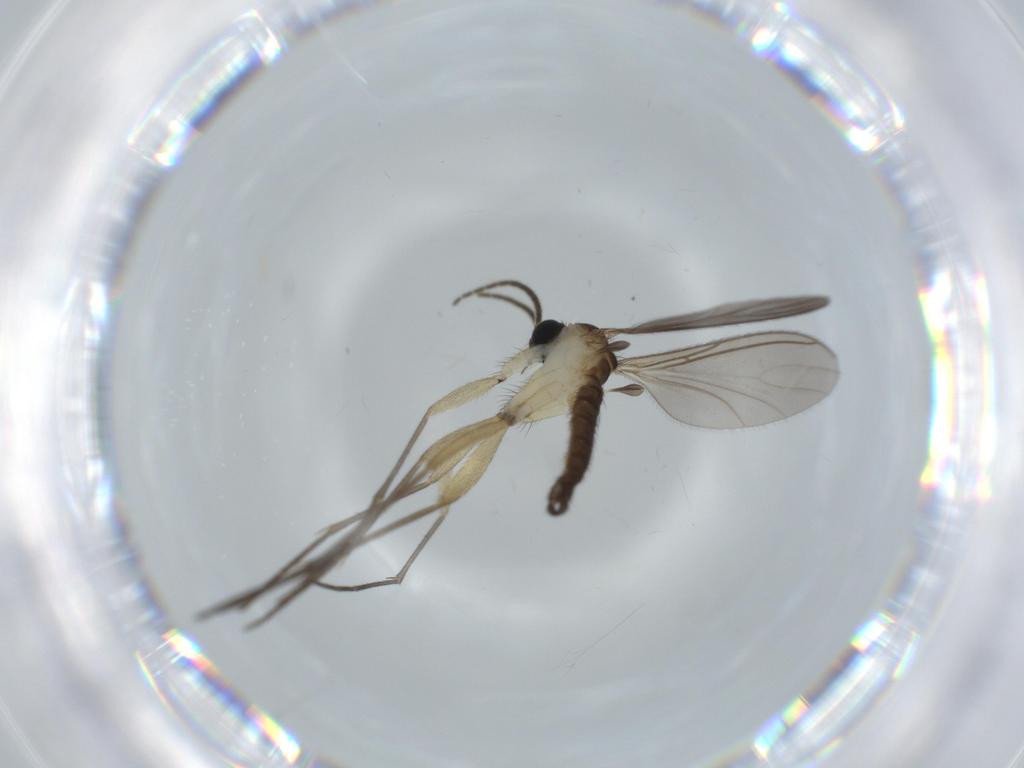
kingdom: Animalia
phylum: Arthropoda
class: Insecta
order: Diptera
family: Sciaridae
